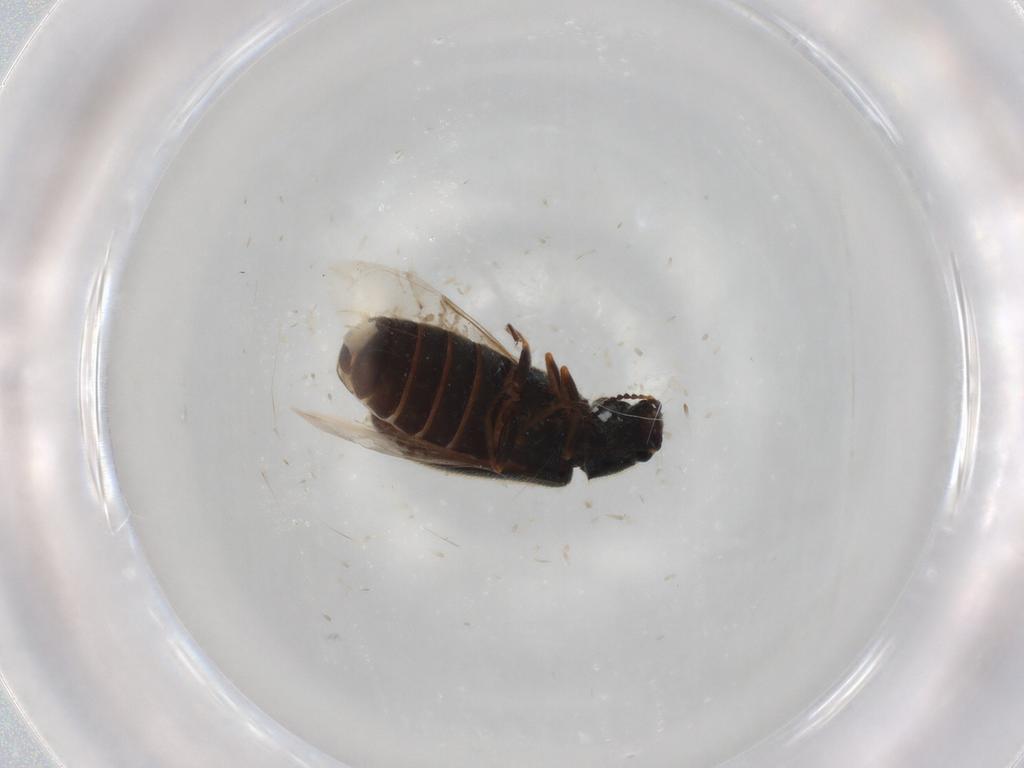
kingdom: Animalia
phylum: Arthropoda
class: Insecta
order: Coleoptera
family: Dasytidae
